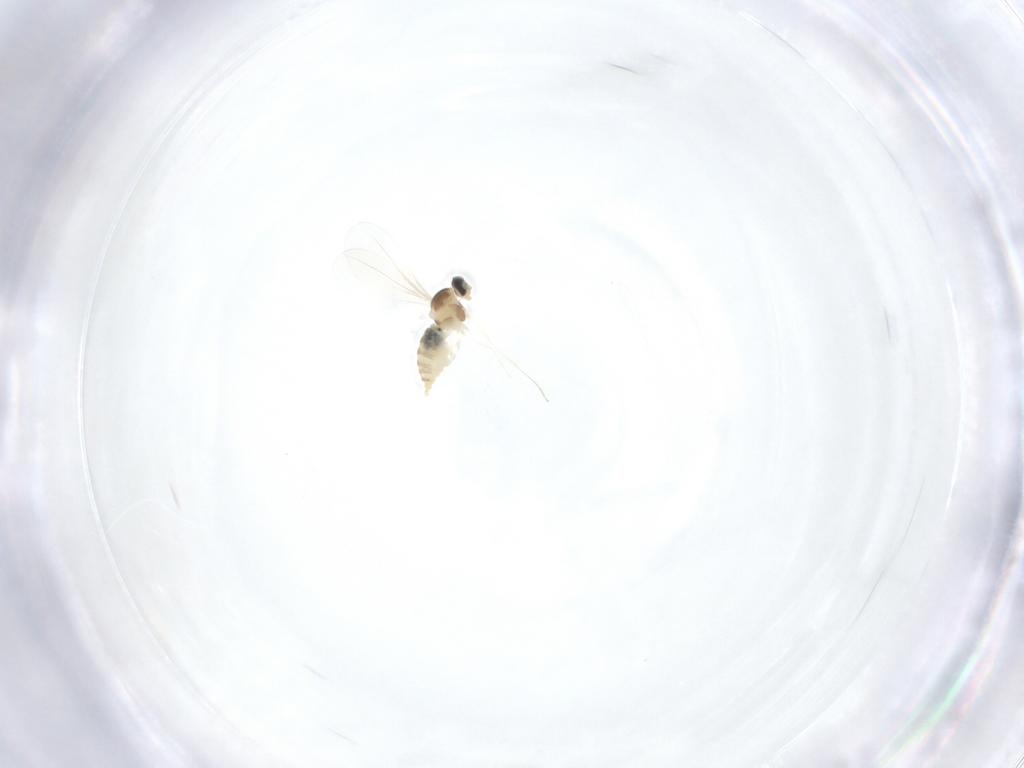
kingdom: Animalia
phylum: Arthropoda
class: Insecta
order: Diptera
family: Cecidomyiidae
